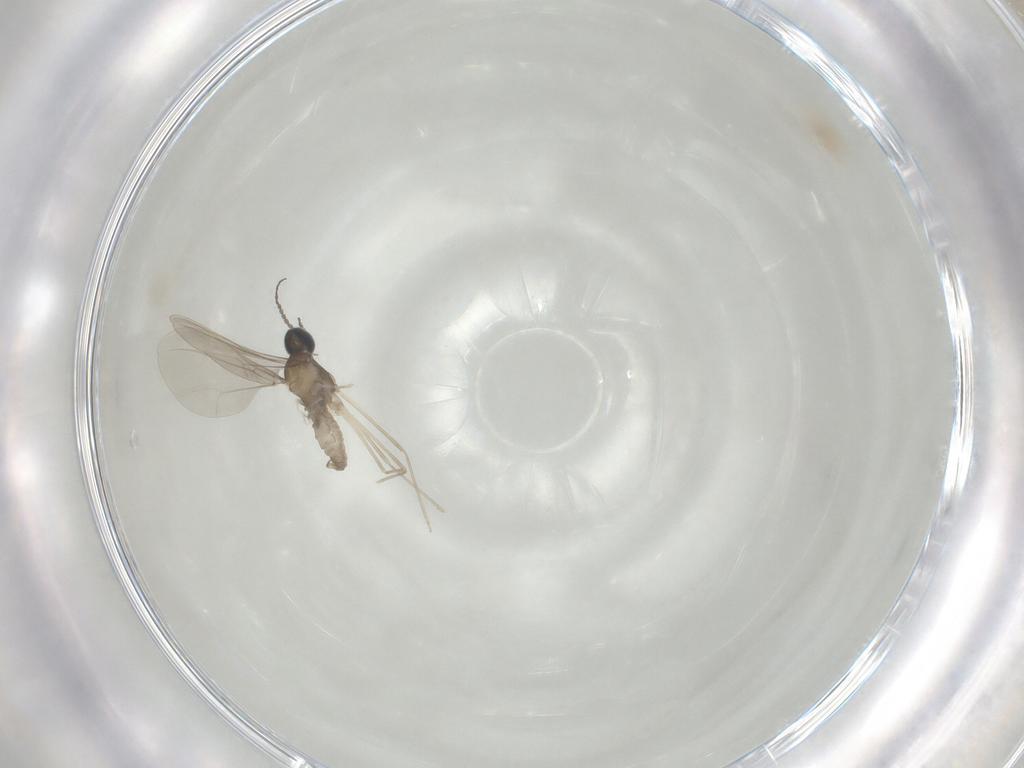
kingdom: Animalia
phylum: Arthropoda
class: Insecta
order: Diptera
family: Cecidomyiidae
